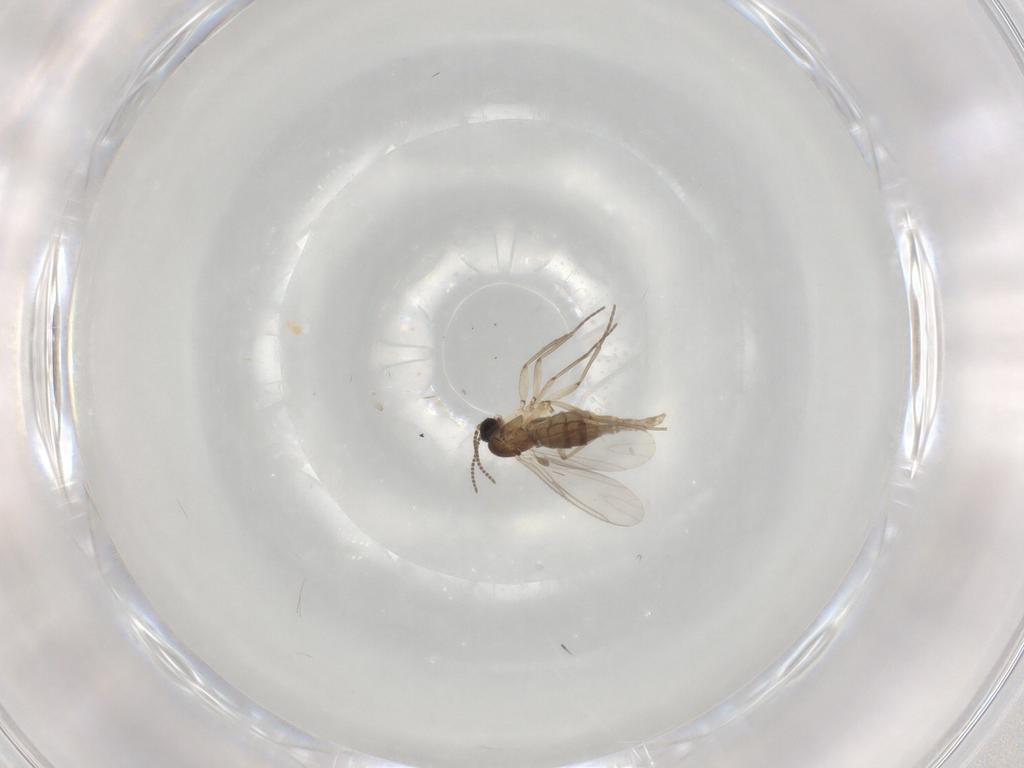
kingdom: Animalia
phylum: Arthropoda
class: Insecta
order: Diptera
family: Sciaridae
